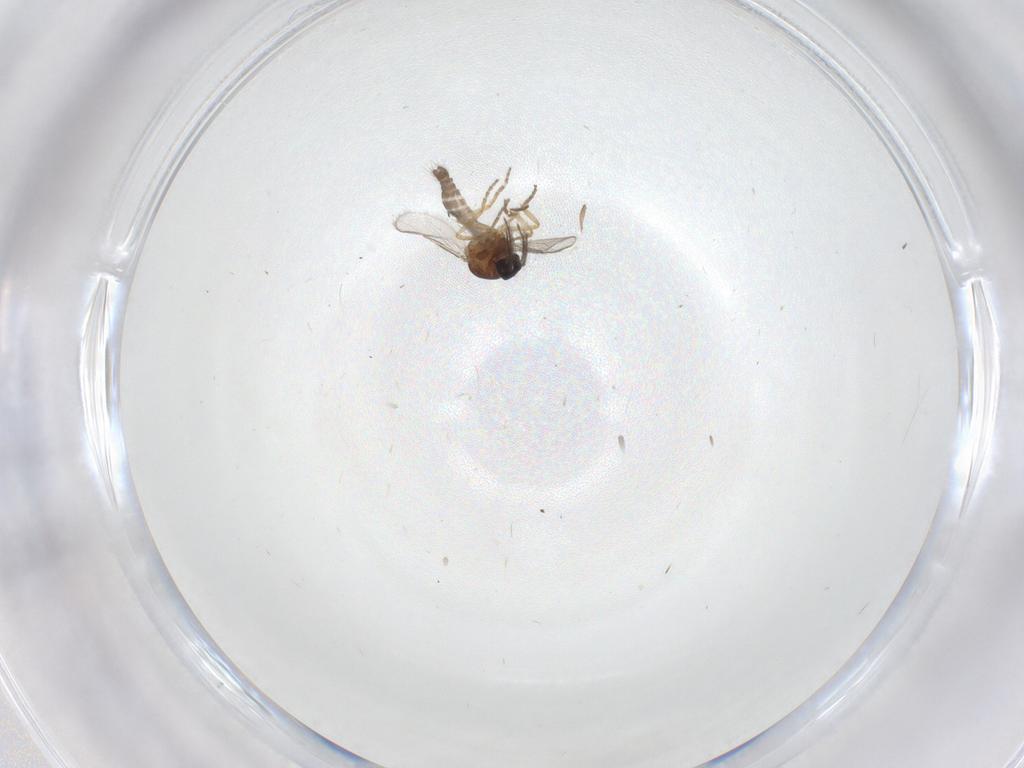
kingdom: Animalia
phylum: Arthropoda
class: Insecta
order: Diptera
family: Ceratopogonidae
